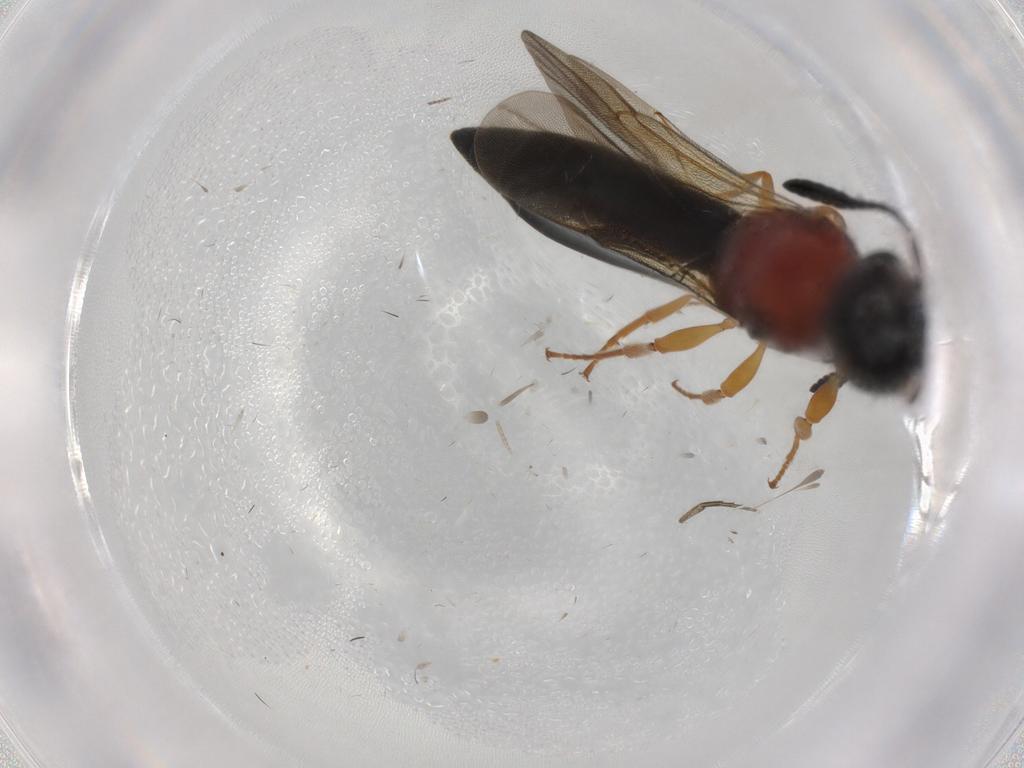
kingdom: Animalia
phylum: Arthropoda
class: Insecta
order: Hymenoptera
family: Formicidae
